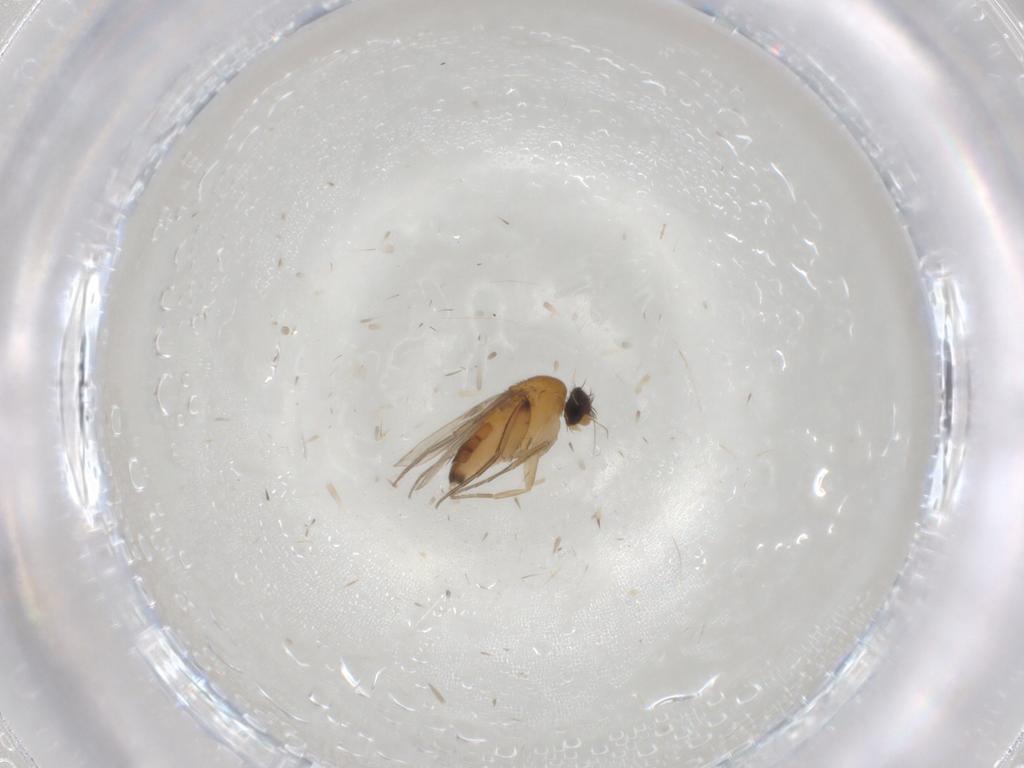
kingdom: Animalia
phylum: Arthropoda
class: Insecta
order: Diptera
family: Phoridae
